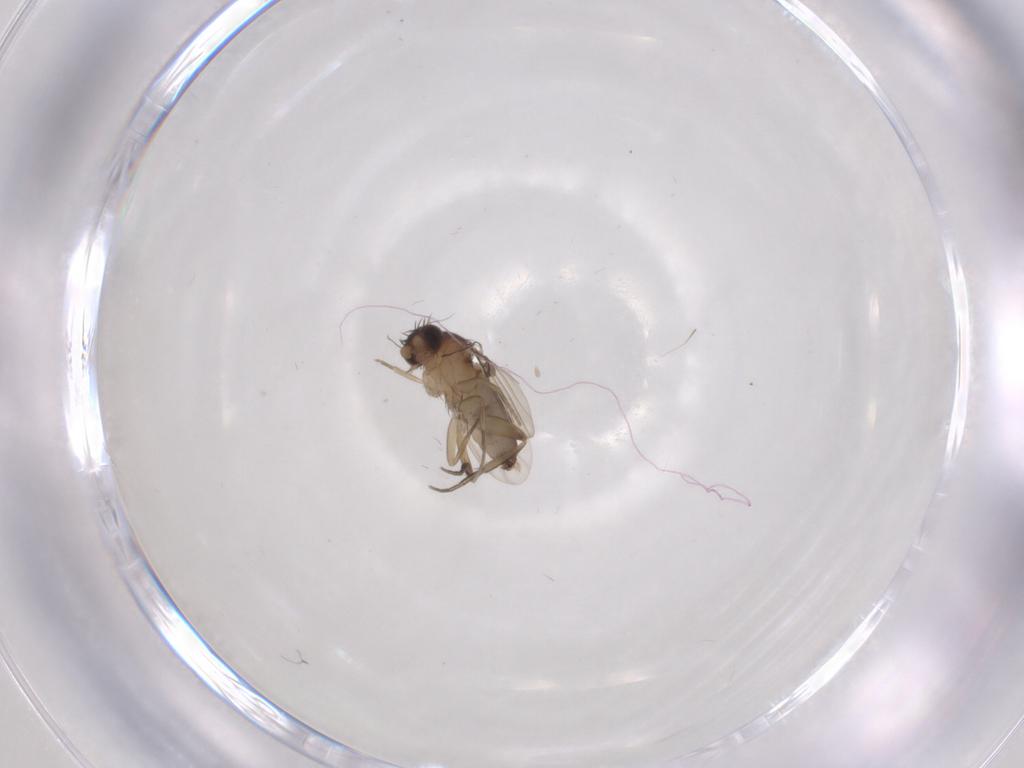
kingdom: Animalia
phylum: Arthropoda
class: Insecta
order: Diptera
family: Phoridae
